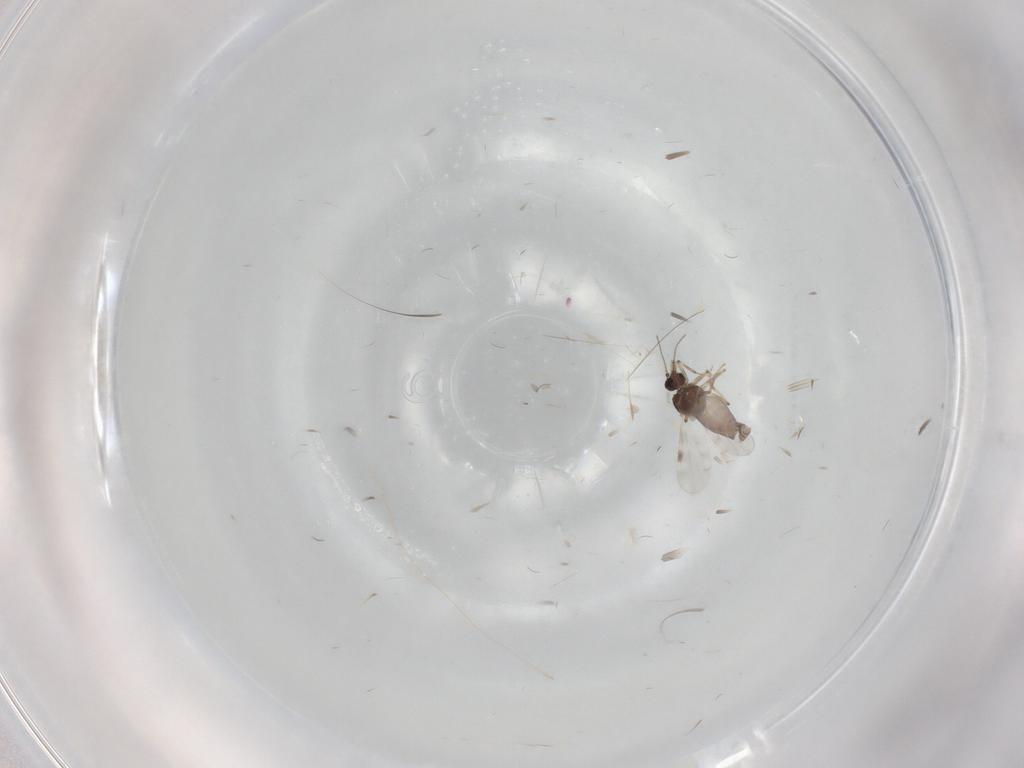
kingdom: Animalia
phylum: Arthropoda
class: Insecta
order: Diptera
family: Cecidomyiidae
